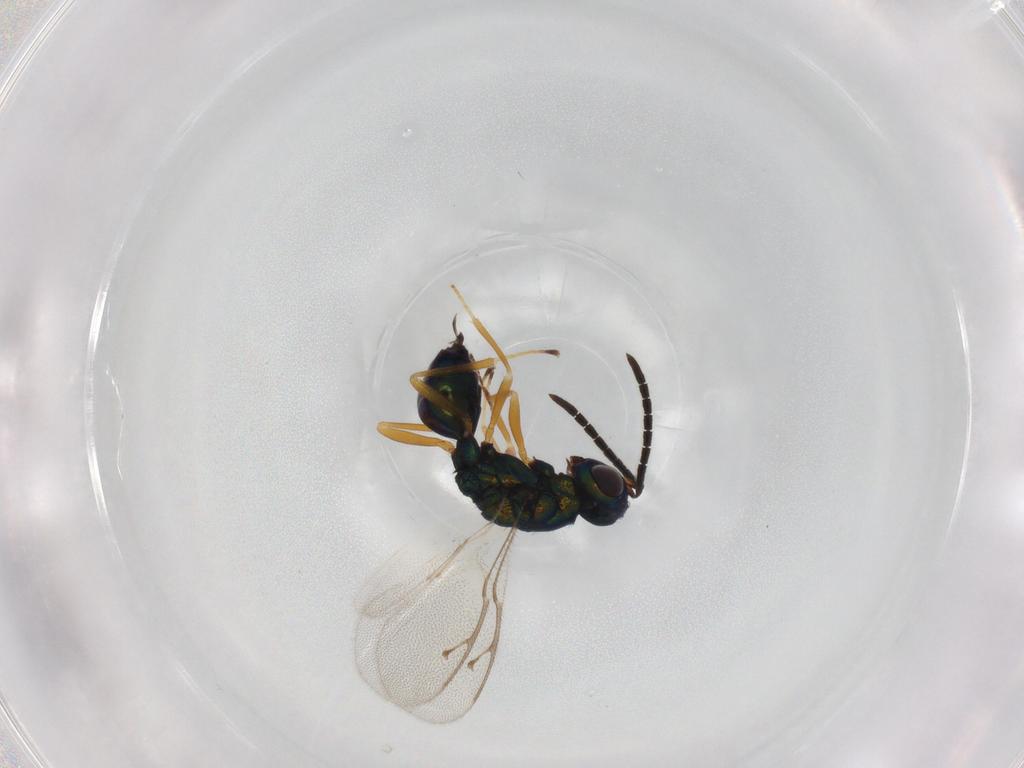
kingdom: Animalia
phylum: Arthropoda
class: Insecta
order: Hymenoptera
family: Pteromalidae
